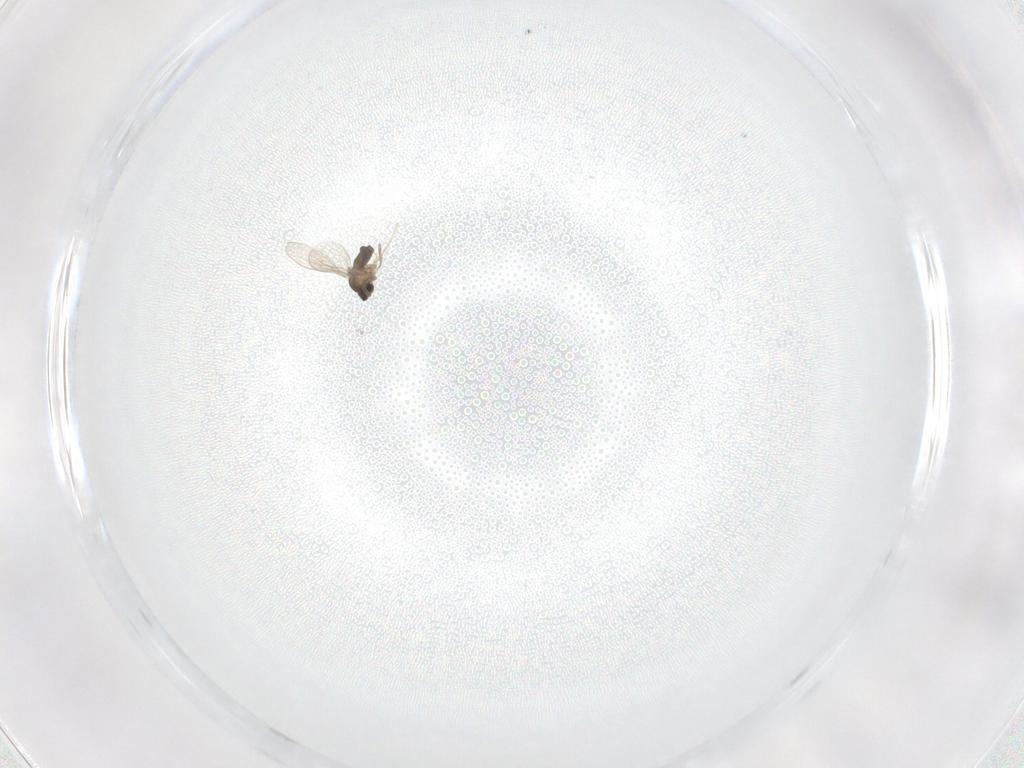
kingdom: Animalia
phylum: Arthropoda
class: Insecta
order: Diptera
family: Cecidomyiidae
